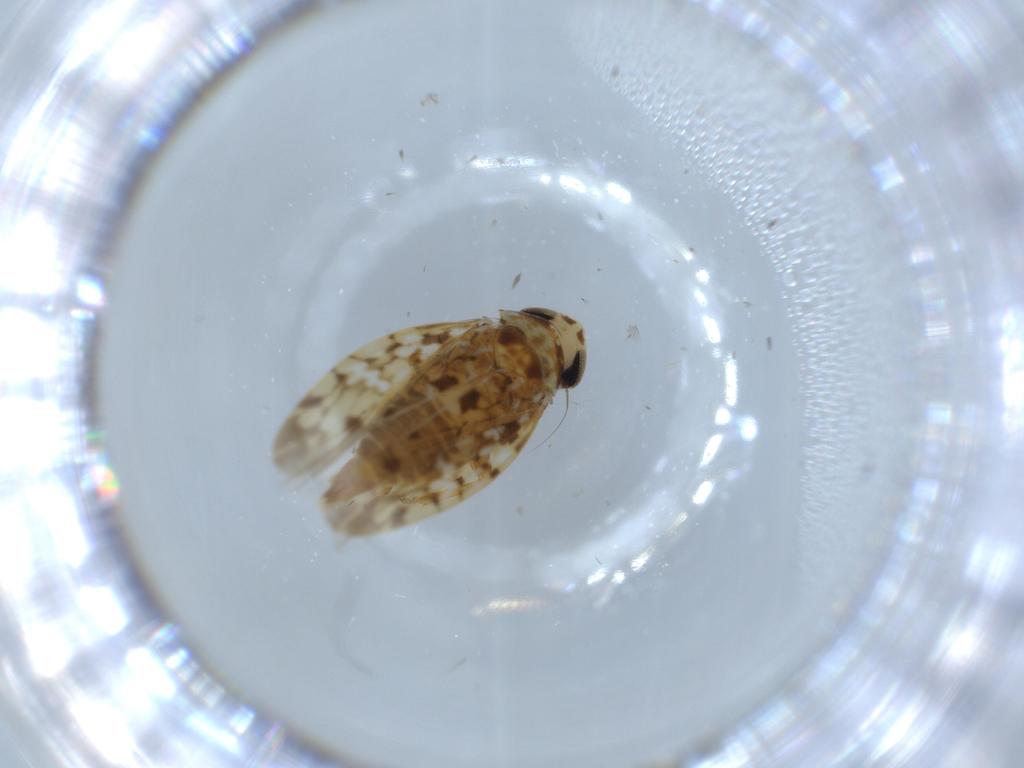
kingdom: Animalia
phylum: Arthropoda
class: Insecta
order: Hemiptera
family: Cicadellidae
